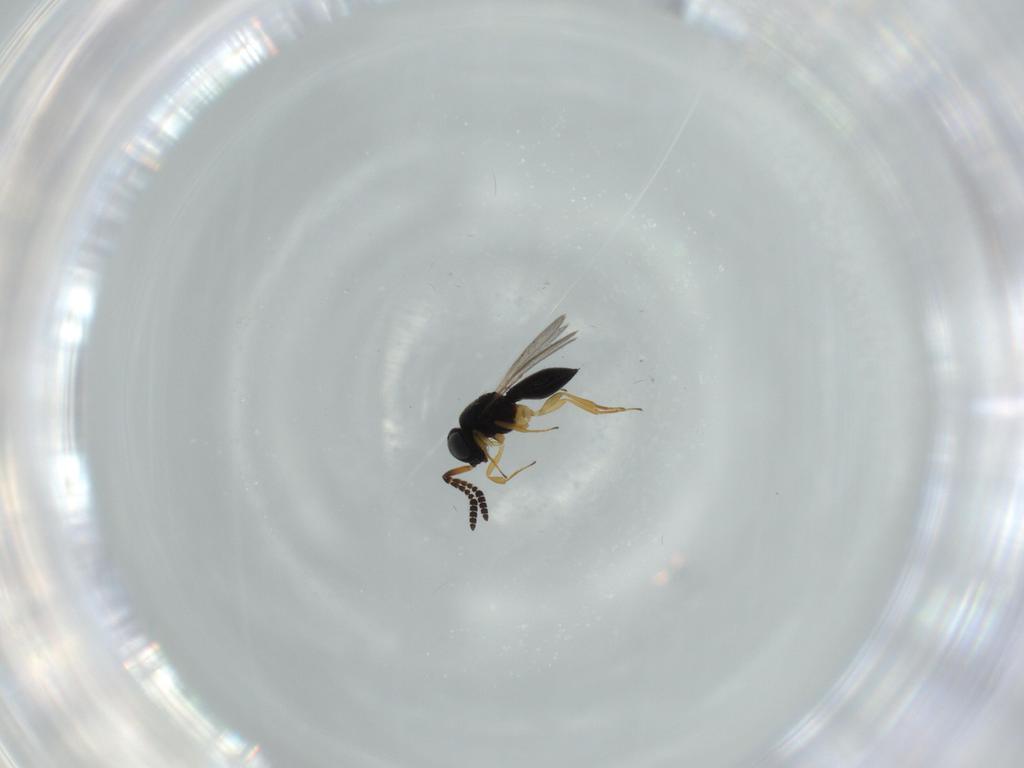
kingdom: Animalia
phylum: Arthropoda
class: Insecta
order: Hymenoptera
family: Scelionidae
